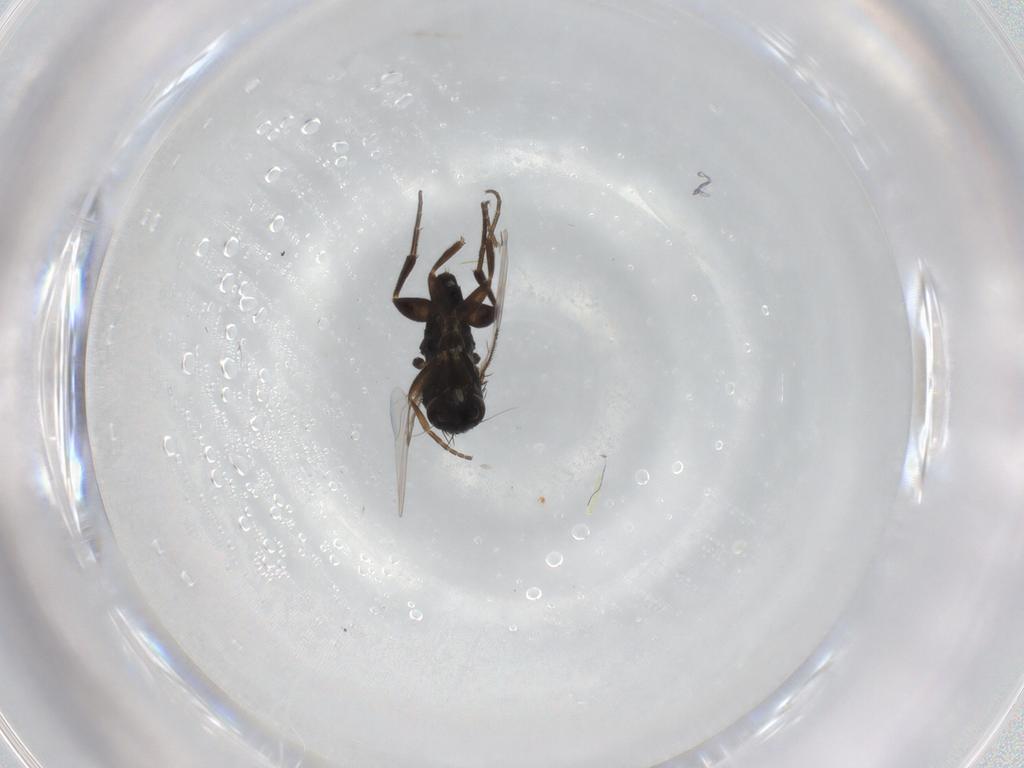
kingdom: Animalia
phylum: Arthropoda
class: Insecta
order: Diptera
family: Phoridae
